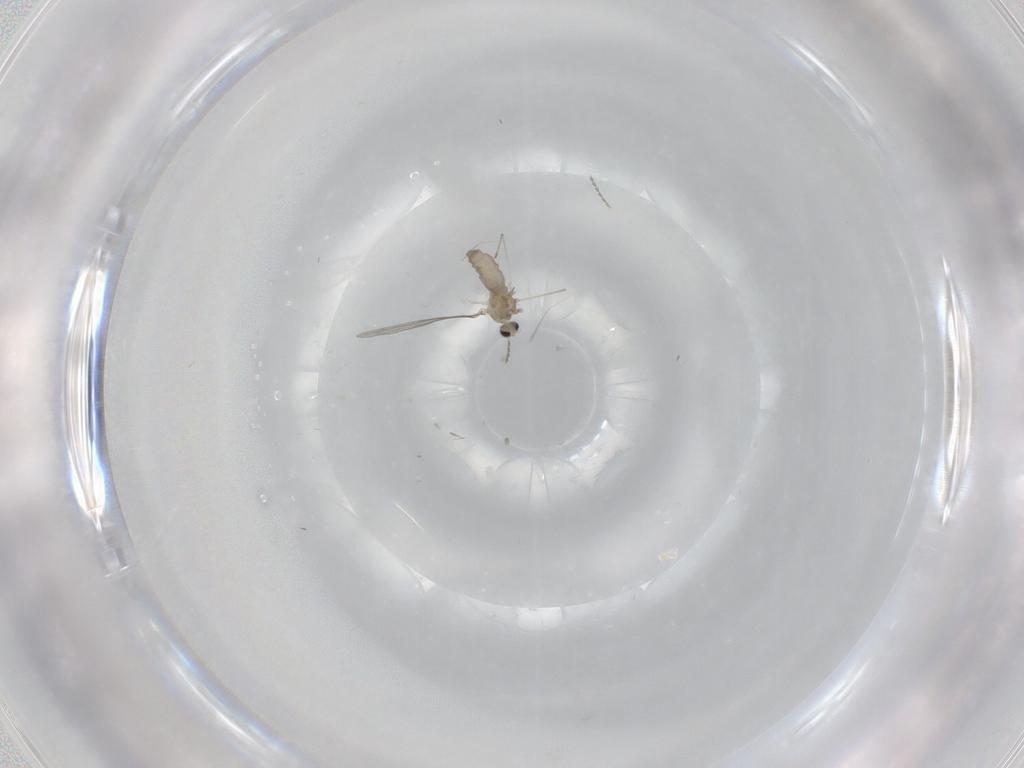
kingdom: Animalia
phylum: Arthropoda
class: Insecta
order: Diptera
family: Cecidomyiidae
